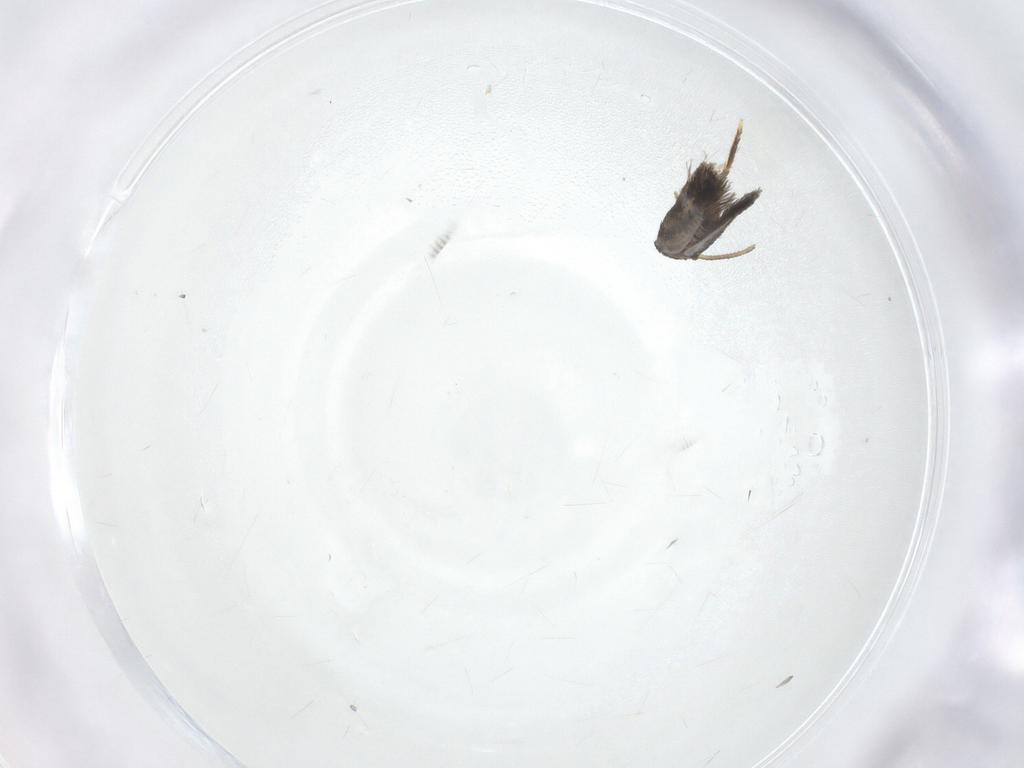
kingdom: Animalia
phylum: Arthropoda
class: Insecta
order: Lepidoptera
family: Nepticulidae
